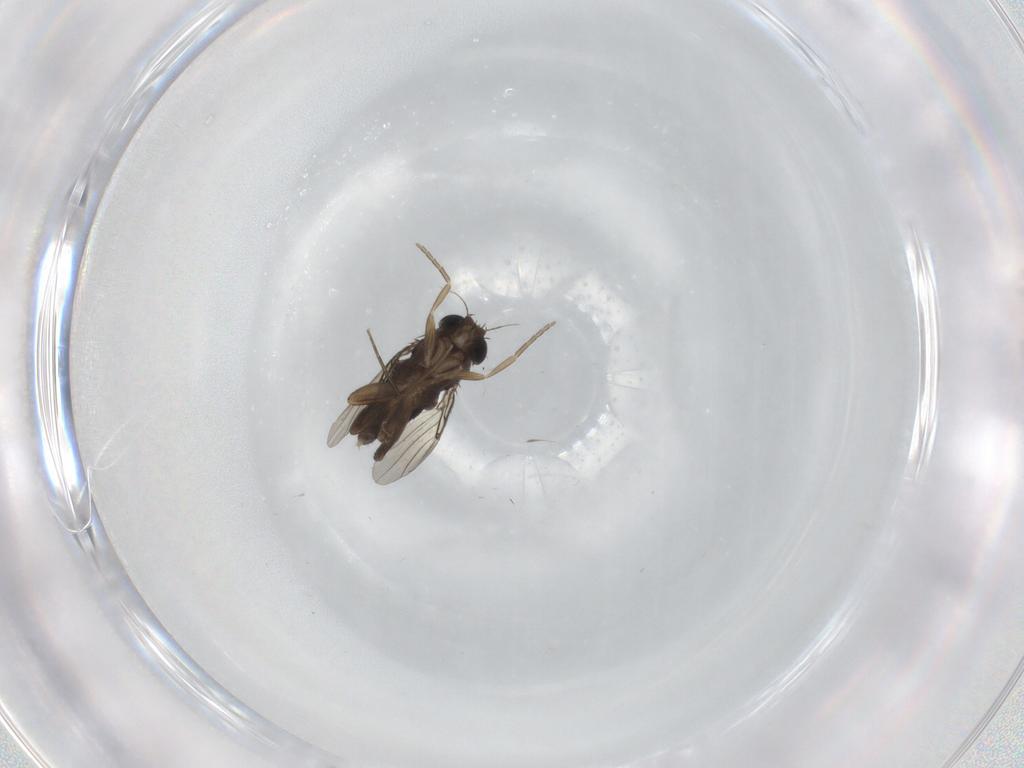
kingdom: Animalia
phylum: Arthropoda
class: Insecta
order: Diptera
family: Phoridae
